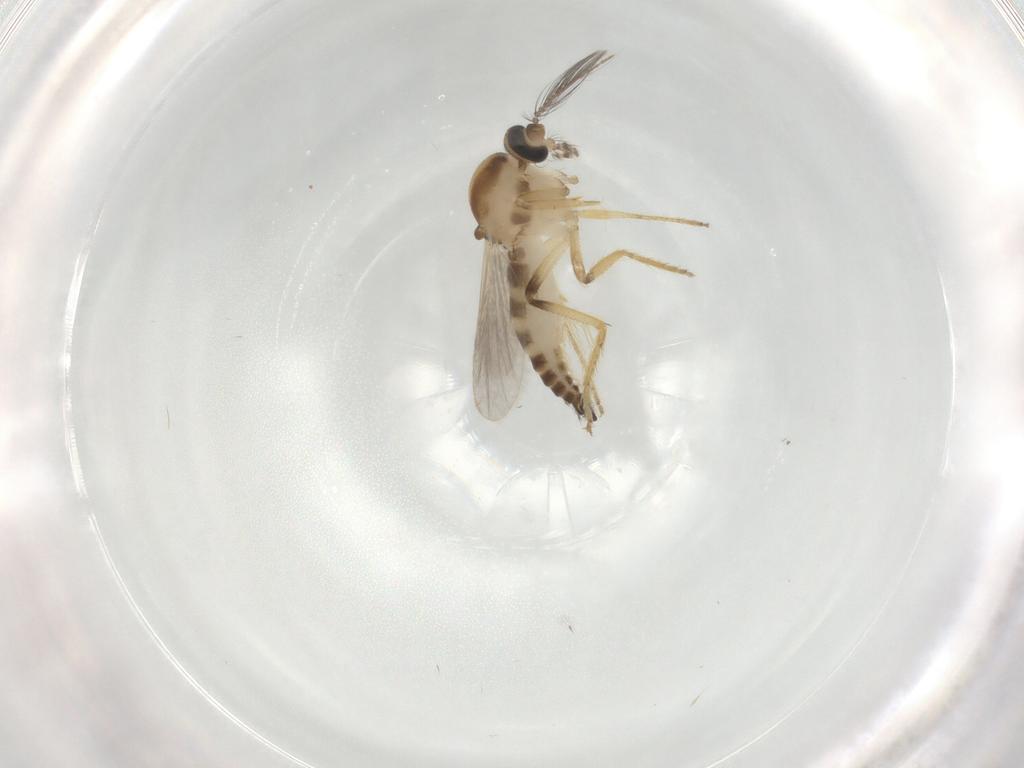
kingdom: Animalia
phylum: Arthropoda
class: Insecta
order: Diptera
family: Ceratopogonidae
